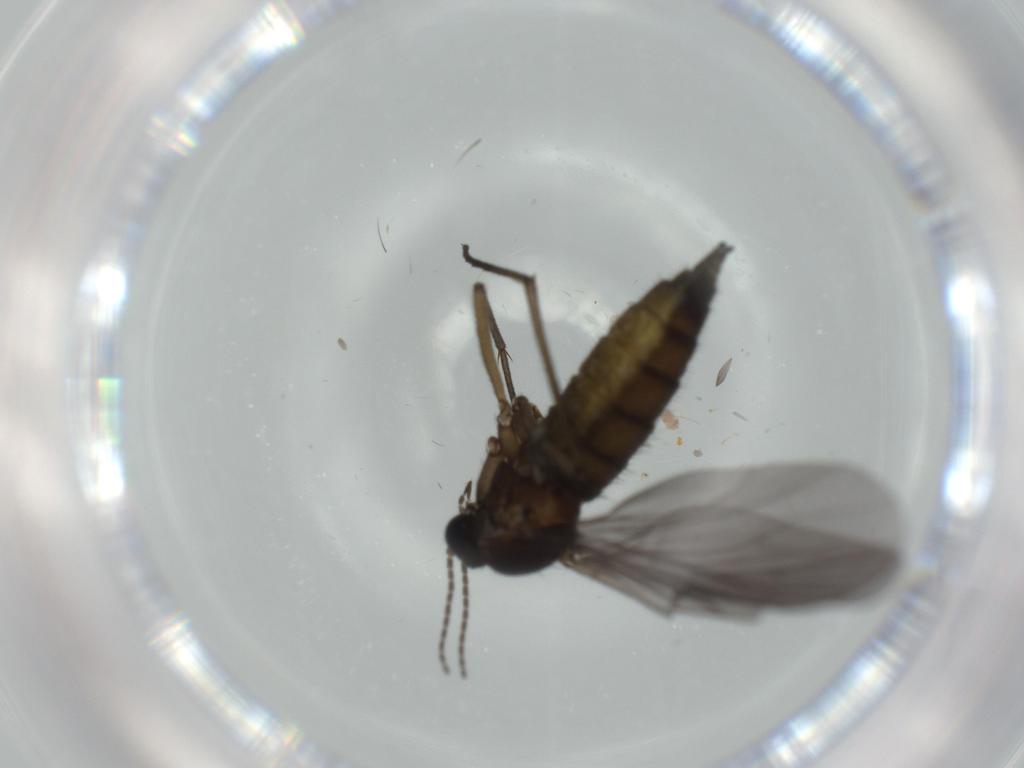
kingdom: Animalia
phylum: Arthropoda
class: Insecta
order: Diptera
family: Sciaridae
